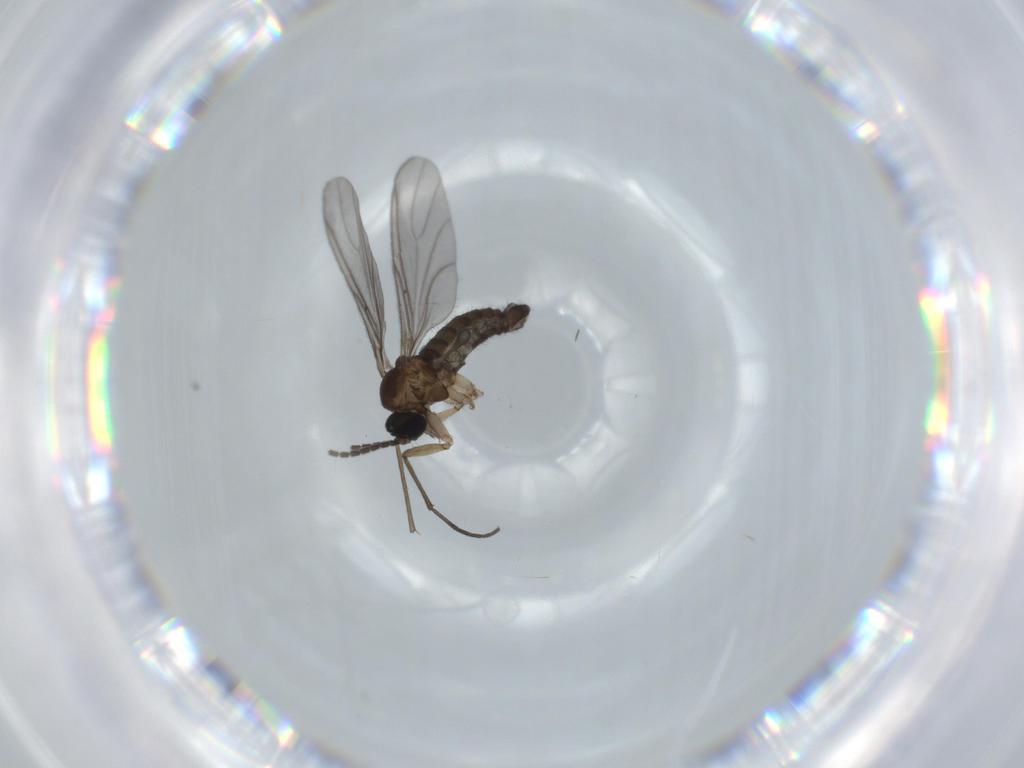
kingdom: Animalia
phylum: Arthropoda
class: Insecta
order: Diptera
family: Sciaridae
